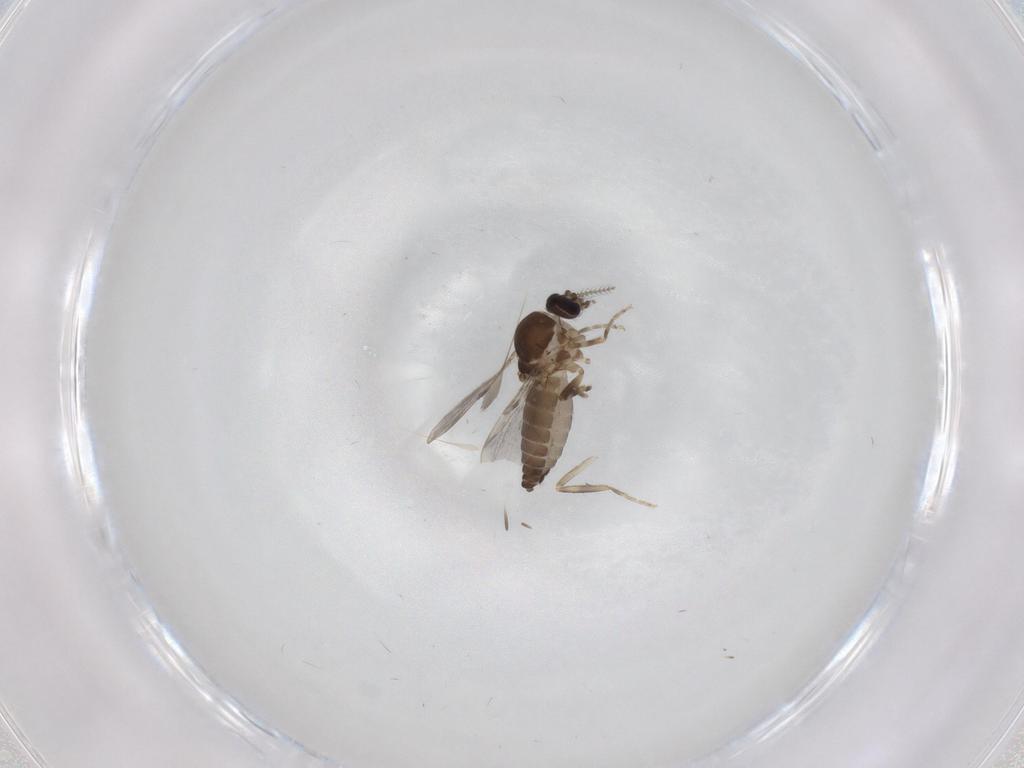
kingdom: Animalia
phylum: Arthropoda
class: Insecta
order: Diptera
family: Ceratopogonidae
